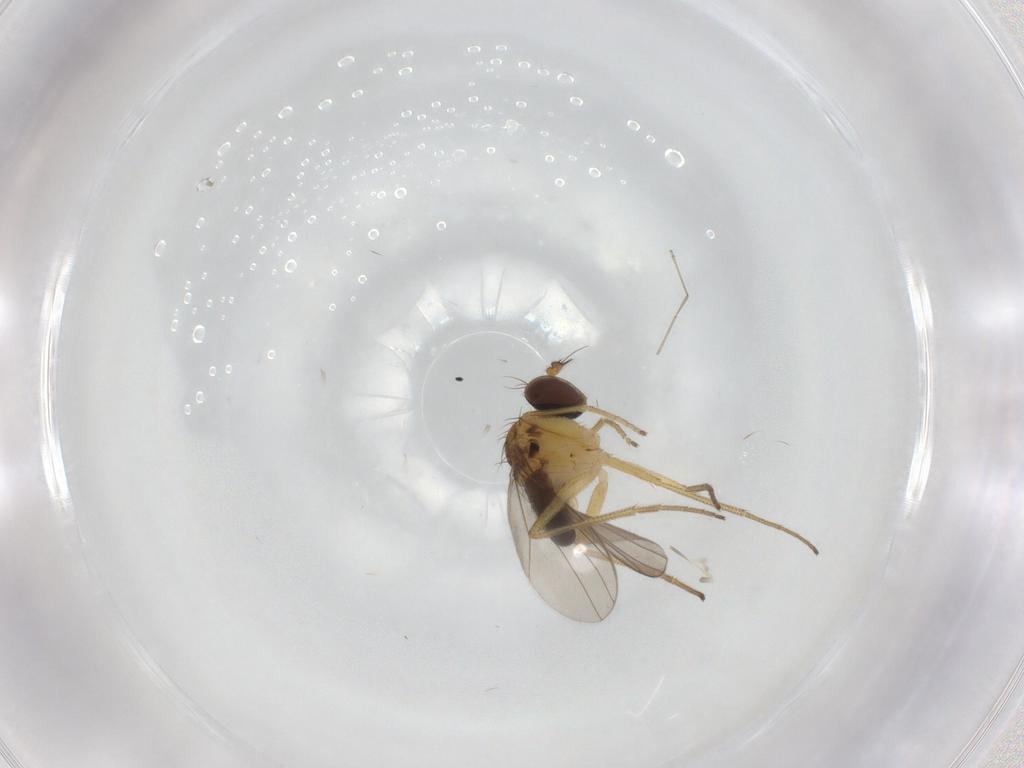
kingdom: Animalia
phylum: Arthropoda
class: Insecta
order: Diptera
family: Dolichopodidae
